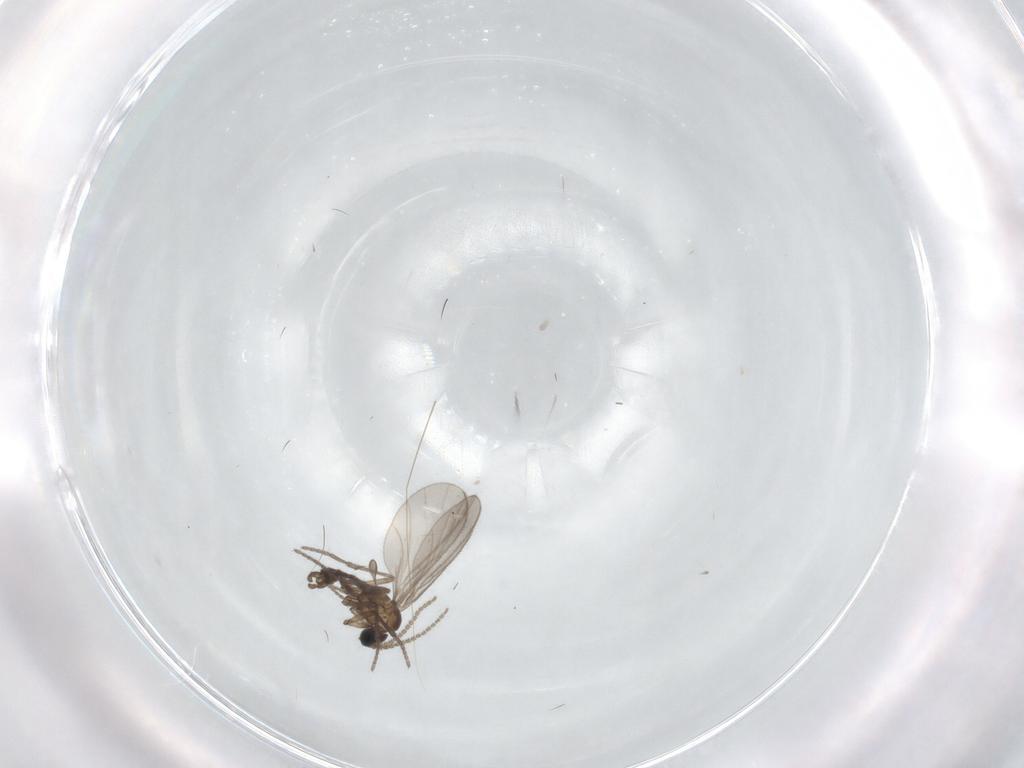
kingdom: Animalia
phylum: Arthropoda
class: Insecta
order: Diptera
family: Sciaridae
